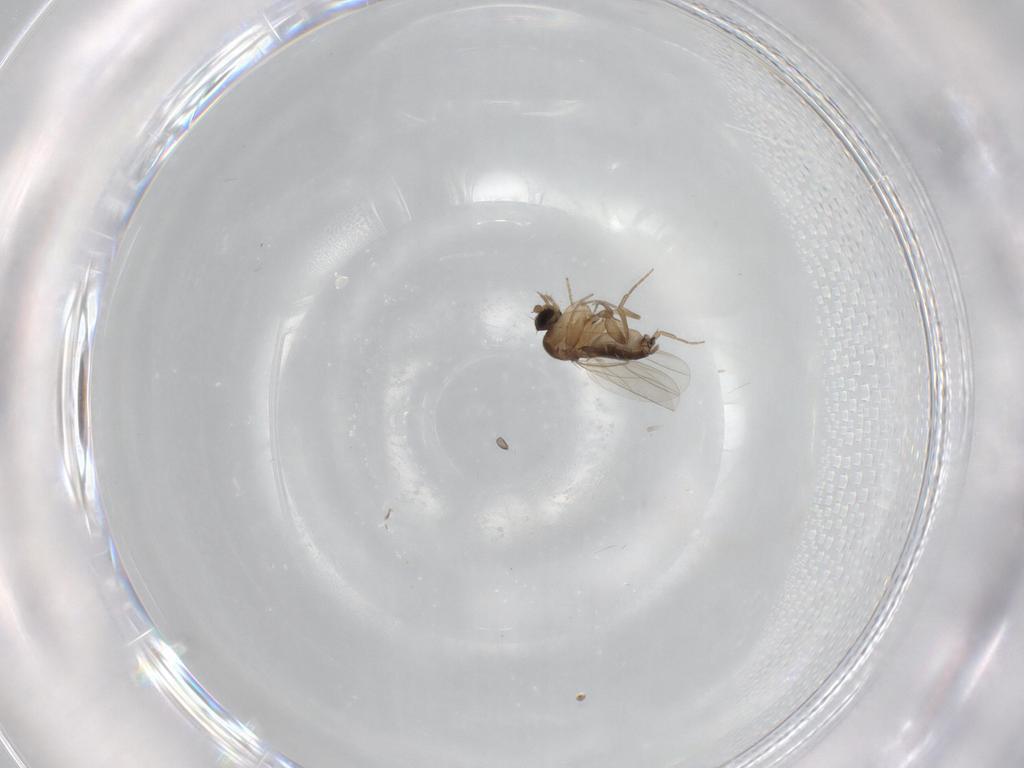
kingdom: Animalia
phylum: Arthropoda
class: Insecta
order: Diptera
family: Phoridae
